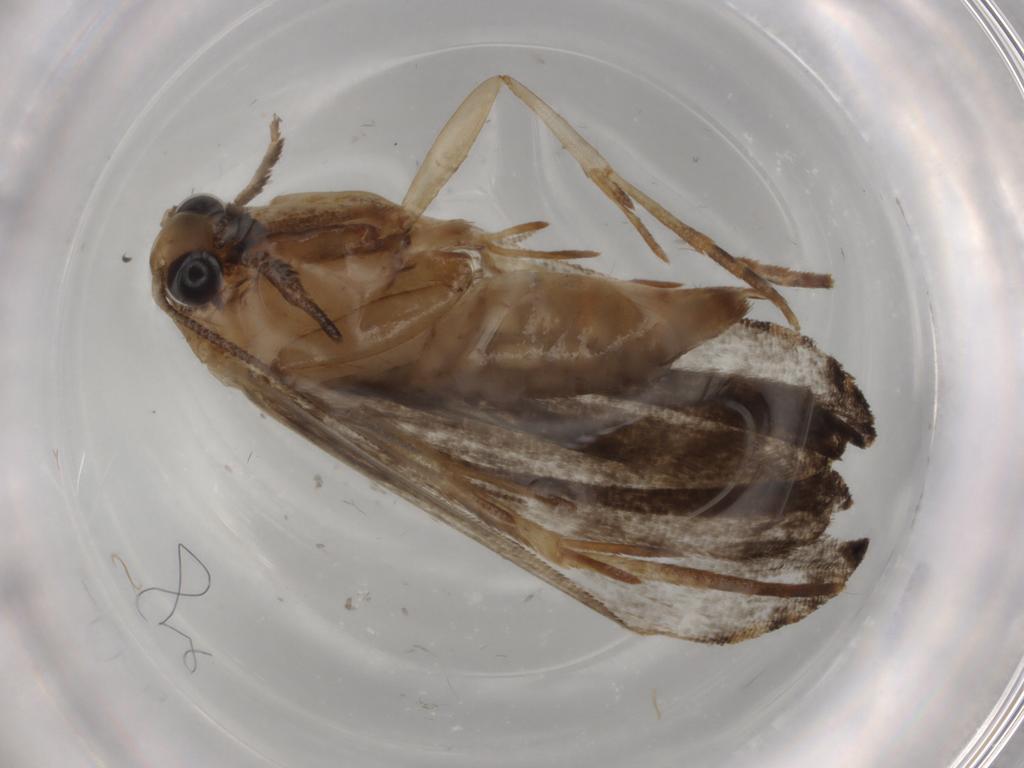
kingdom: Animalia
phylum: Arthropoda
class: Insecta
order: Lepidoptera
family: Tineidae
